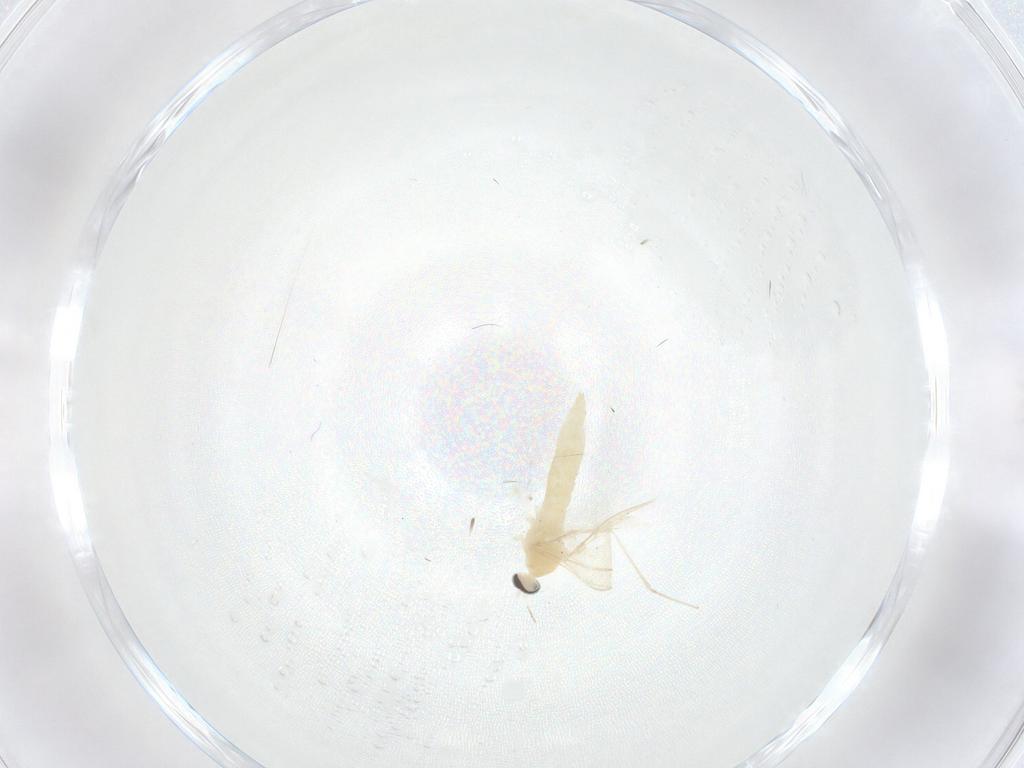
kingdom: Animalia
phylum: Arthropoda
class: Insecta
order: Diptera
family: Cecidomyiidae
